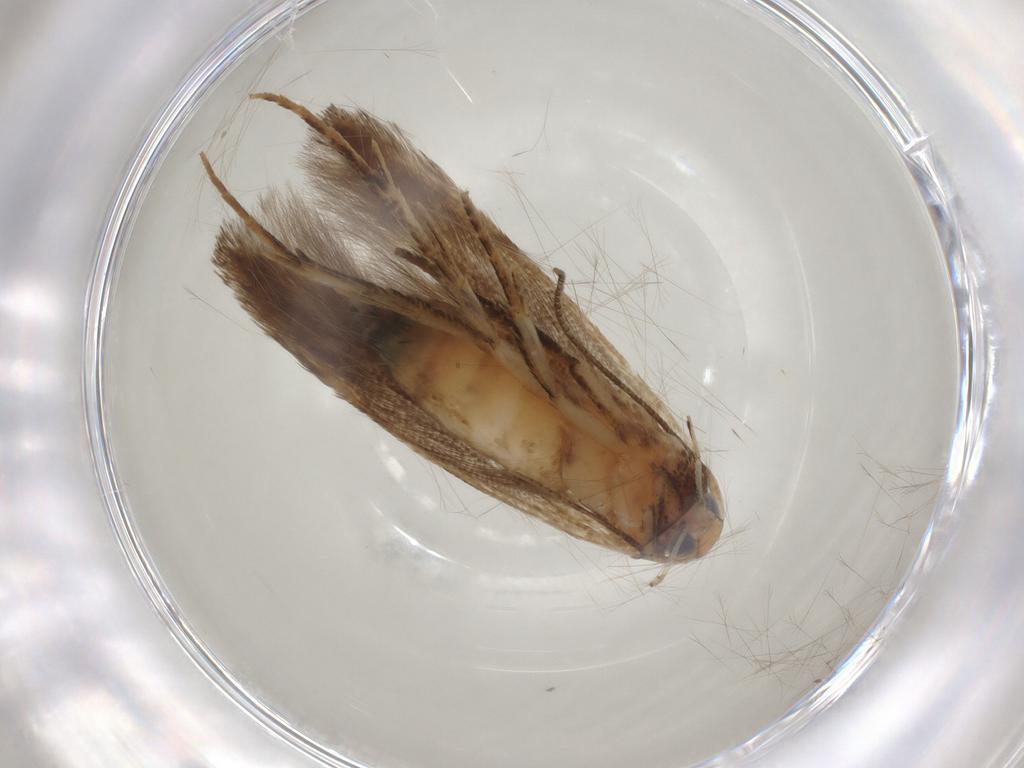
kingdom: Animalia
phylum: Arthropoda
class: Insecta
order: Lepidoptera
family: Cosmopterigidae
